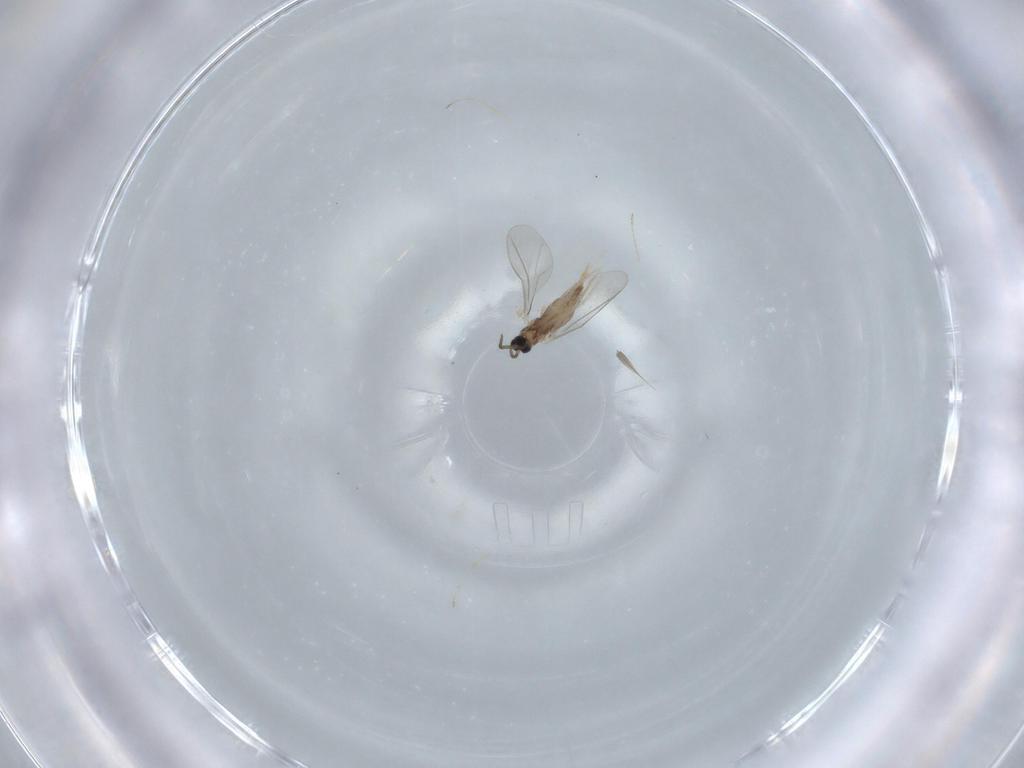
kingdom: Animalia
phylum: Arthropoda
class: Insecta
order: Diptera
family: Cecidomyiidae
